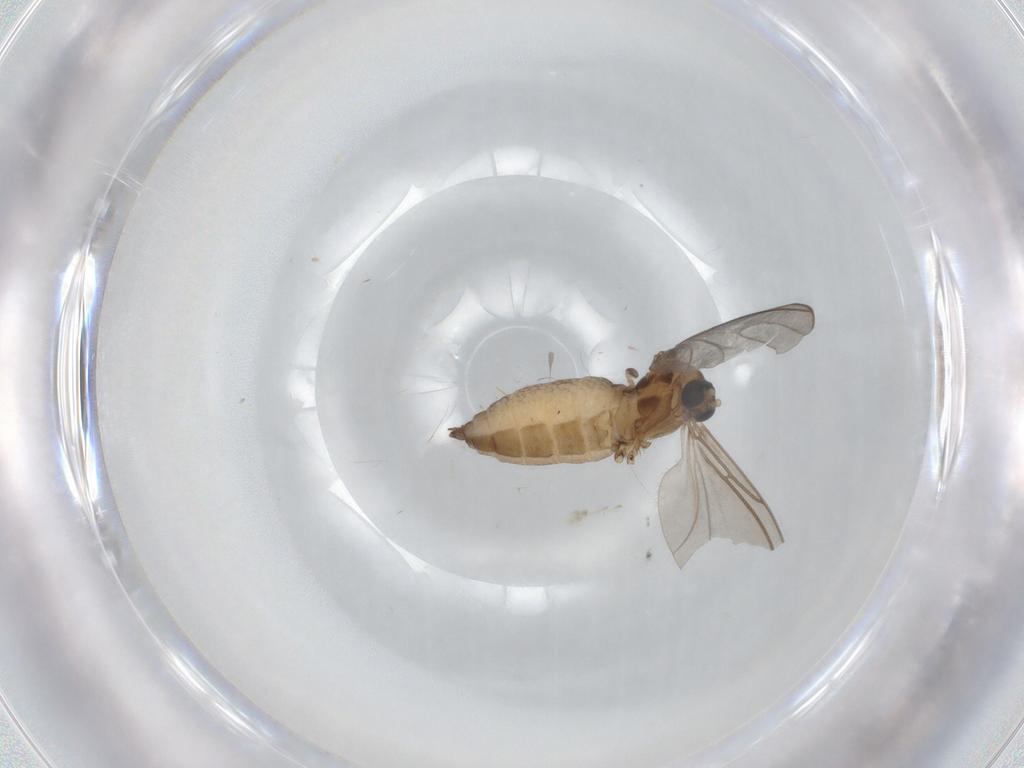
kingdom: Animalia
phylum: Arthropoda
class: Insecta
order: Diptera
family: Sciaridae
